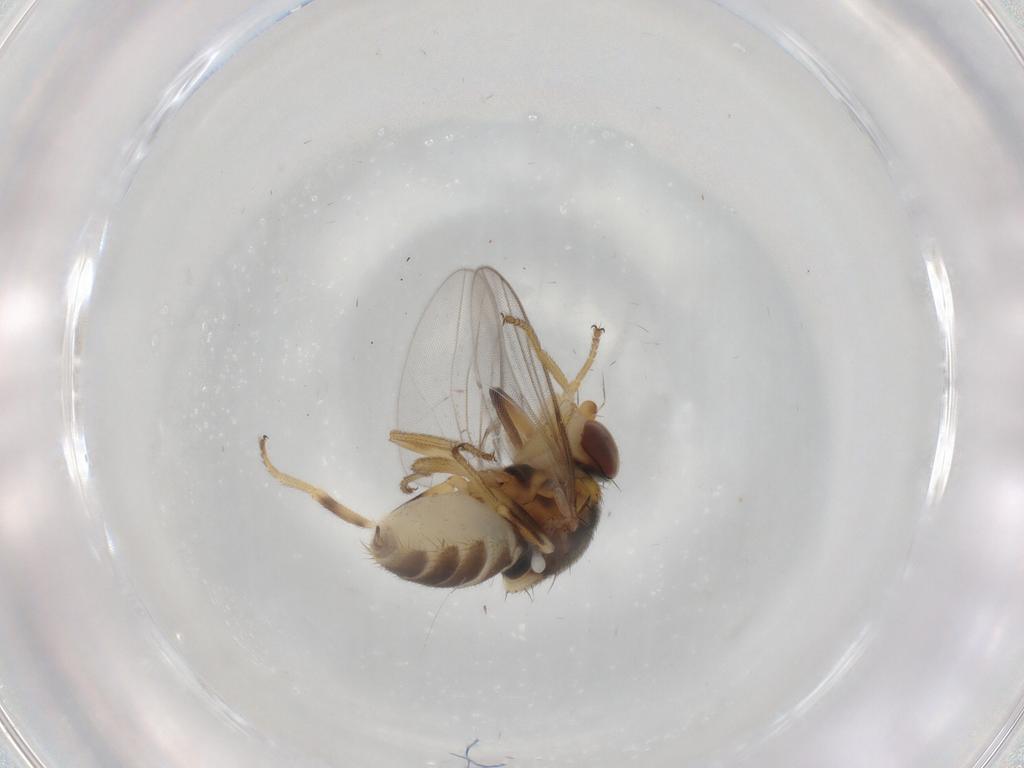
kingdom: Animalia
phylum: Arthropoda
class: Insecta
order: Diptera
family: Chloropidae
